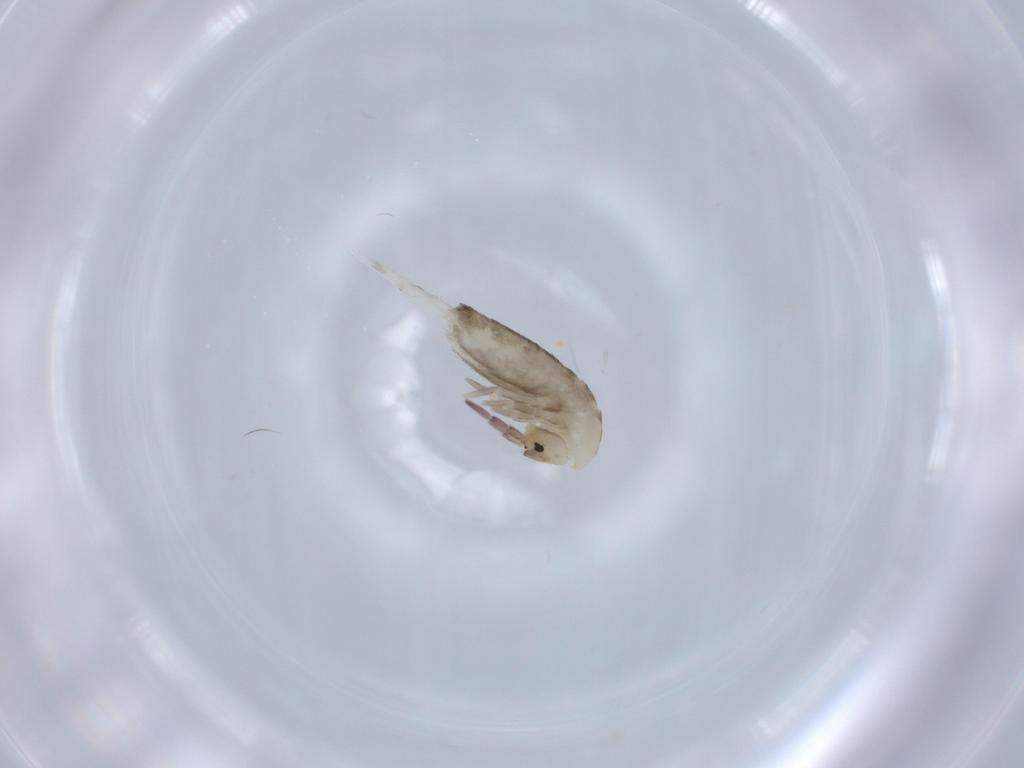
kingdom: Animalia
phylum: Arthropoda
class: Collembola
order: Entomobryomorpha
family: Entomobryidae
